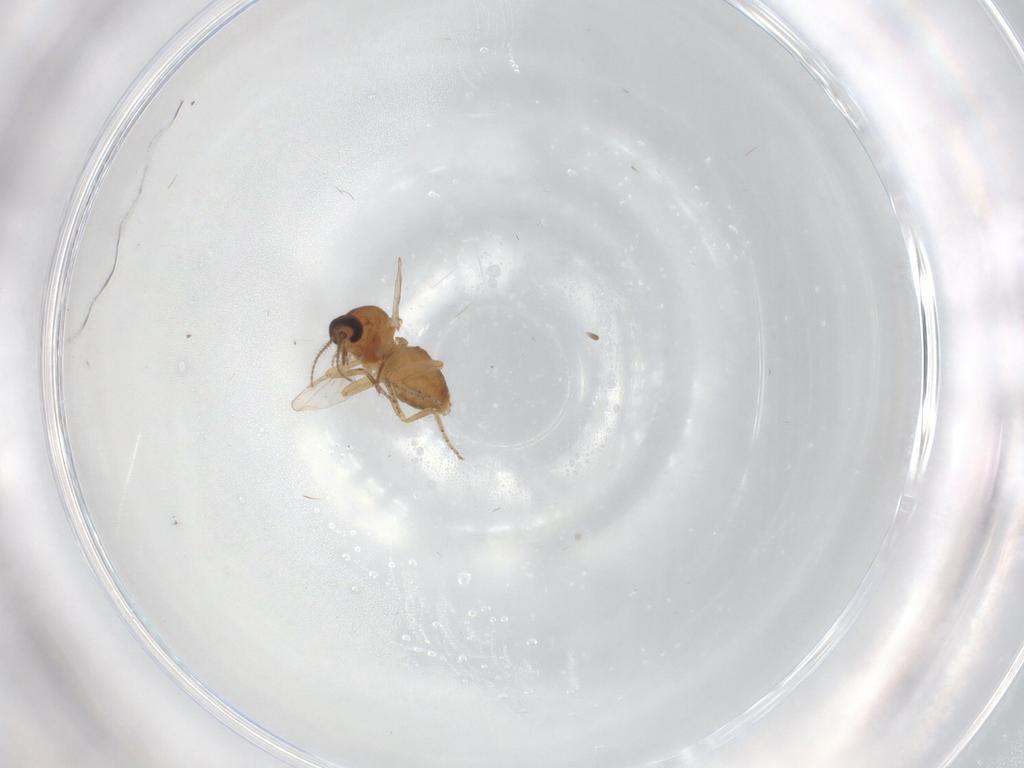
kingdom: Animalia
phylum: Arthropoda
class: Insecta
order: Diptera
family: Ceratopogonidae
